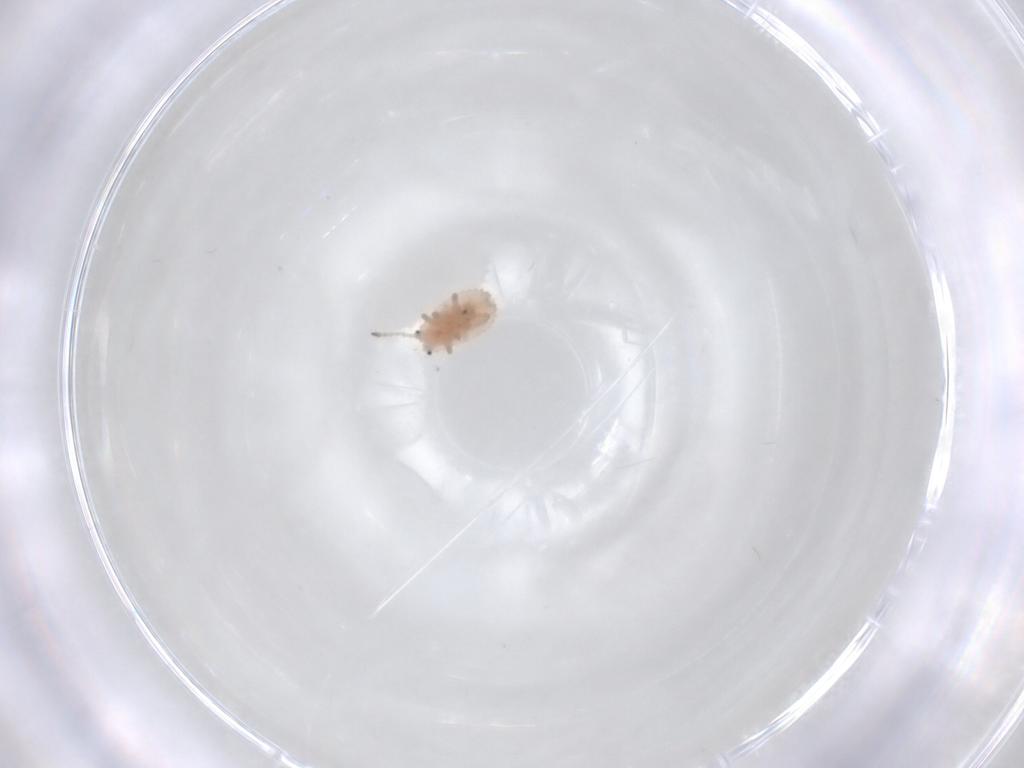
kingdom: Animalia
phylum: Arthropoda
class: Insecta
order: Hemiptera
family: Coccoidea_incertae_sedis
